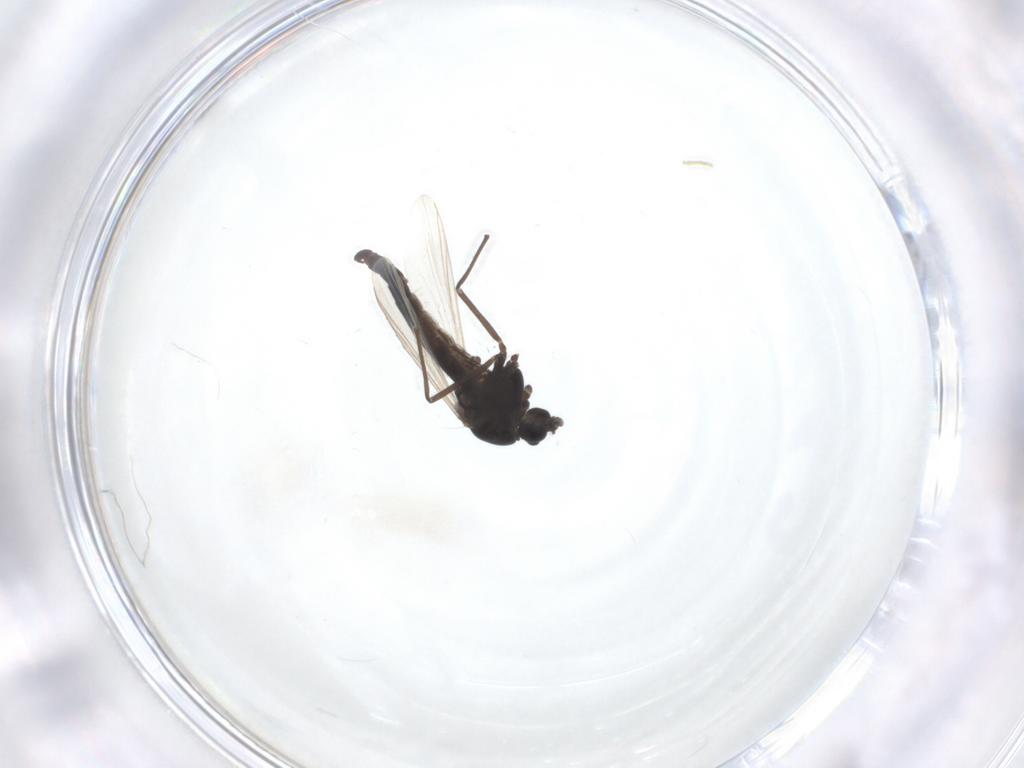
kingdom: Animalia
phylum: Arthropoda
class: Insecta
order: Diptera
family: Chironomidae
